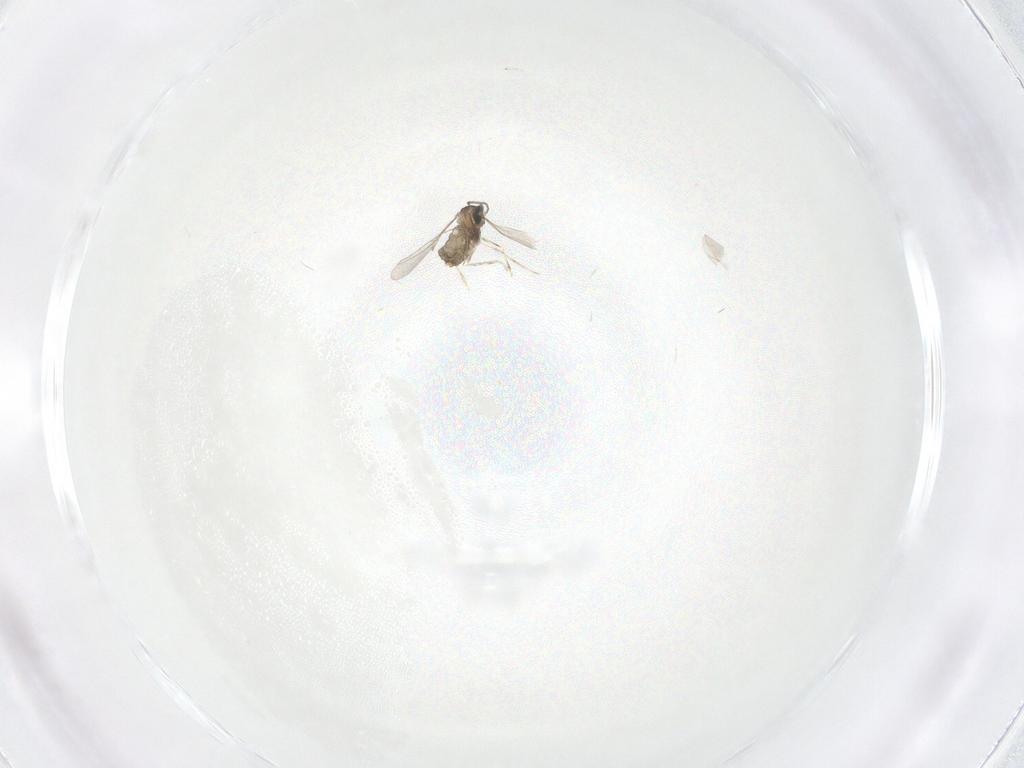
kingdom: Animalia
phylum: Arthropoda
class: Insecta
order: Diptera
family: Cecidomyiidae
